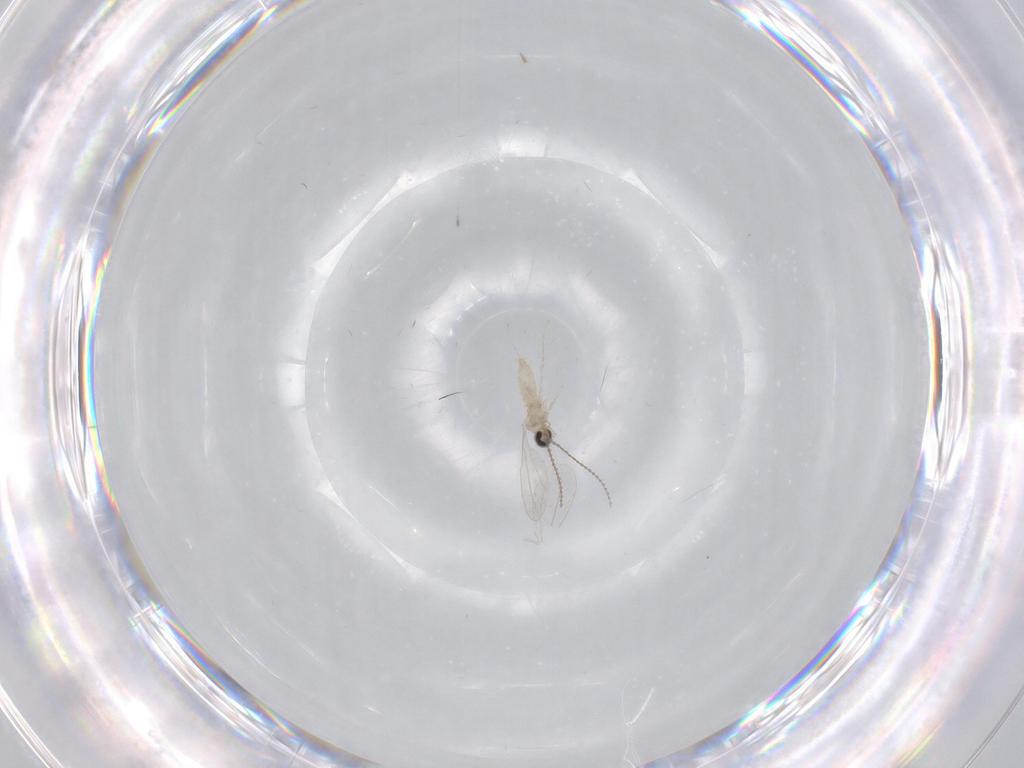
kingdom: Animalia
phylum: Arthropoda
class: Insecta
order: Diptera
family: Cecidomyiidae
